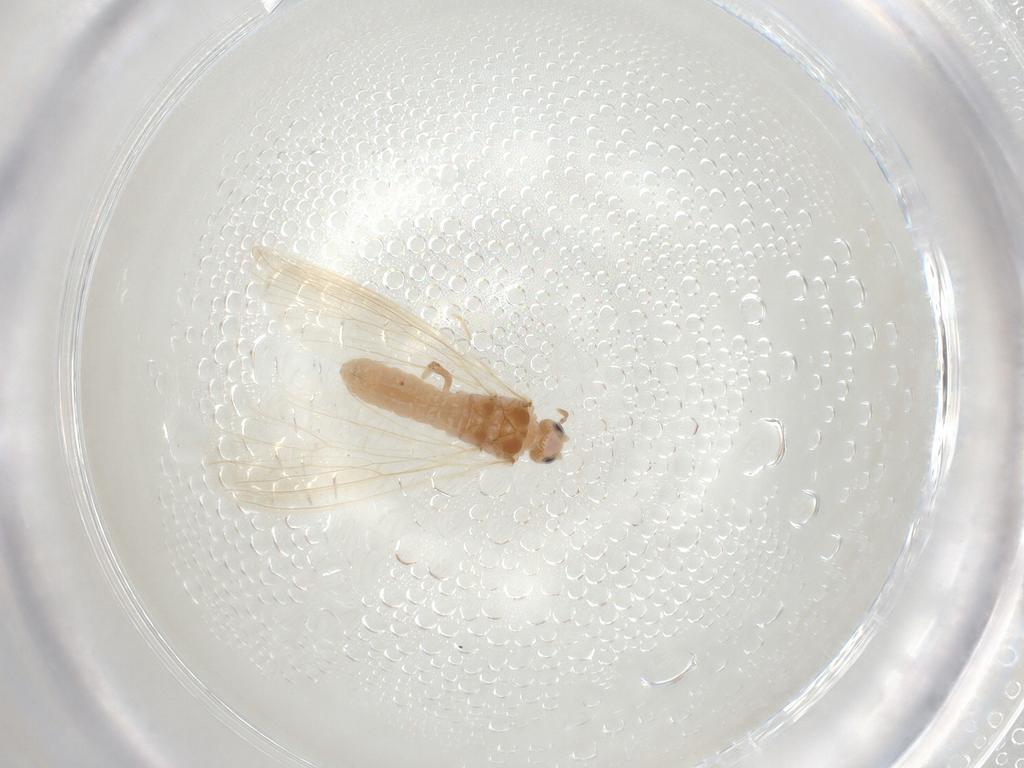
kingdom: Animalia
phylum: Arthropoda
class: Insecta
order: Neuroptera
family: Coniopterygidae
